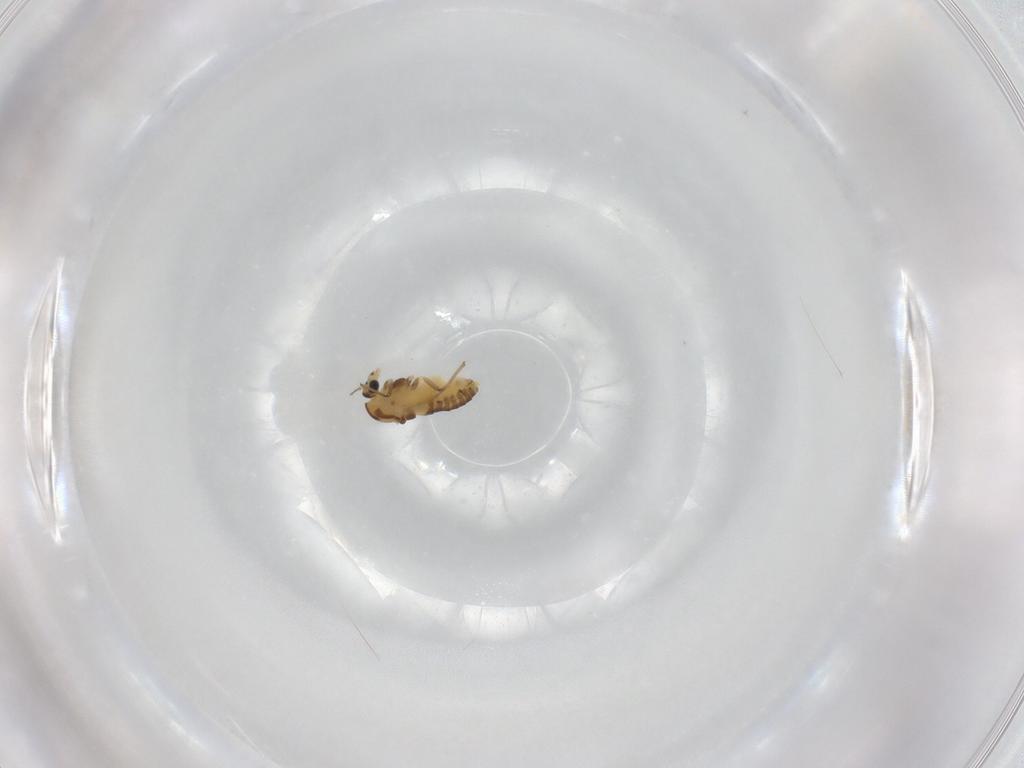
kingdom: Animalia
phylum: Arthropoda
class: Insecta
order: Diptera
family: Chironomidae
